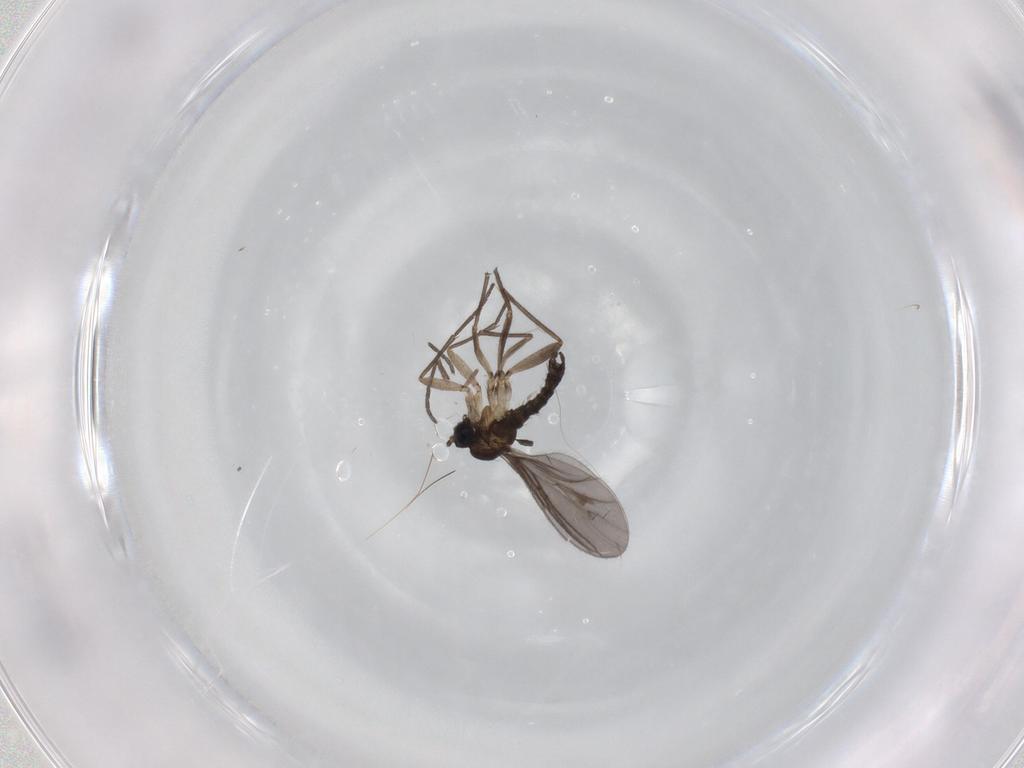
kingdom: Animalia
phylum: Arthropoda
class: Insecta
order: Diptera
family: Sciaridae
